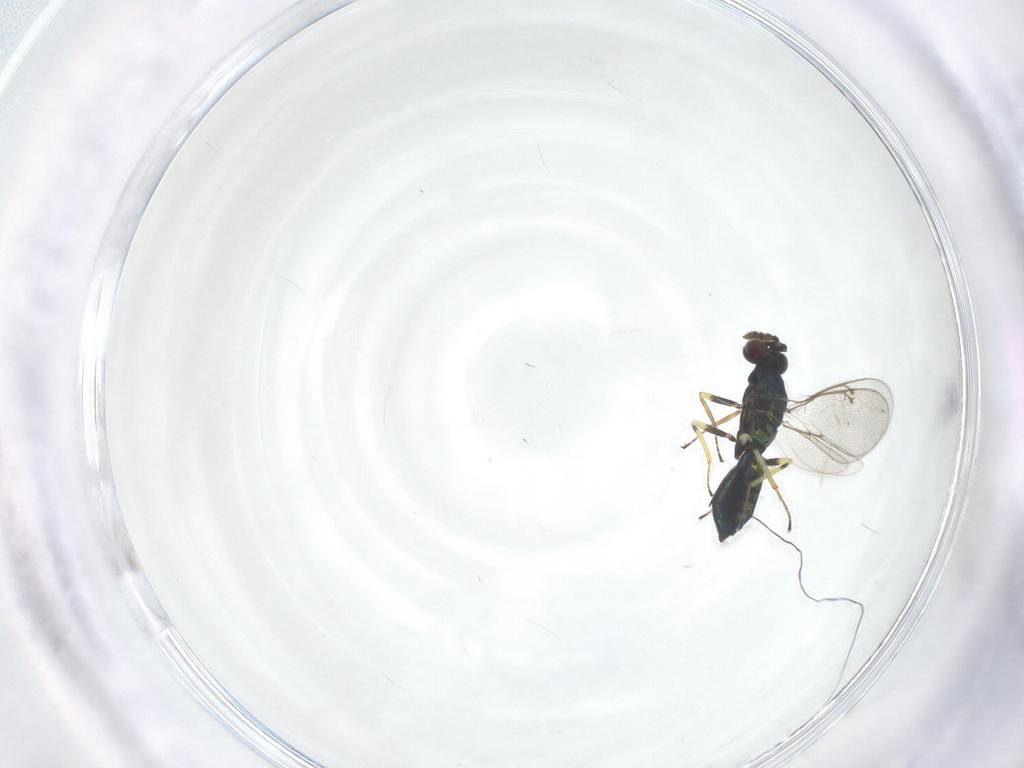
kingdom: Animalia
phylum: Arthropoda
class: Insecta
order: Hymenoptera
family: Eulophidae
